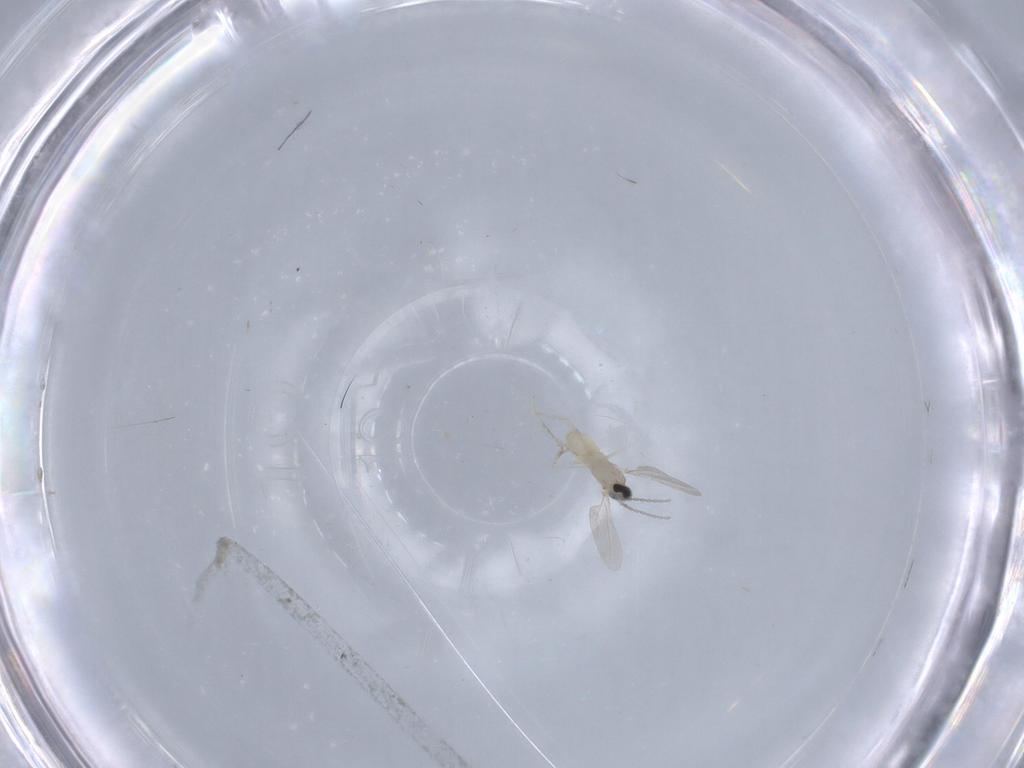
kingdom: Animalia
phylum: Arthropoda
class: Insecta
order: Diptera
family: Cecidomyiidae
